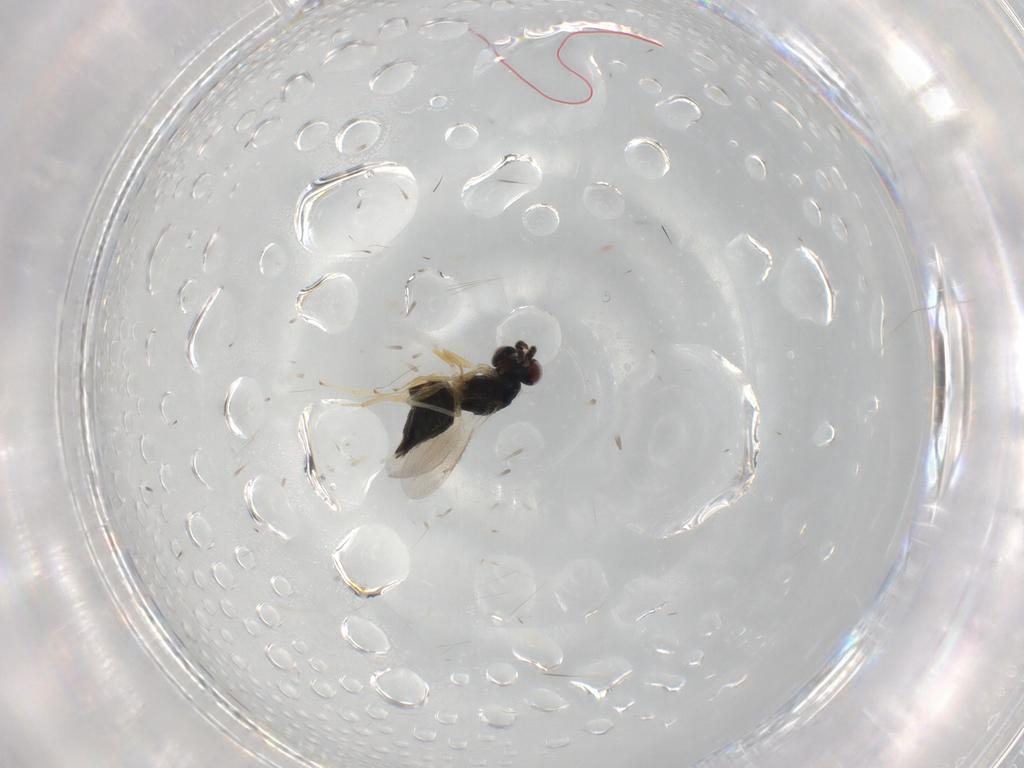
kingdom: Animalia
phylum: Arthropoda
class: Insecta
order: Hymenoptera
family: Eulophidae
